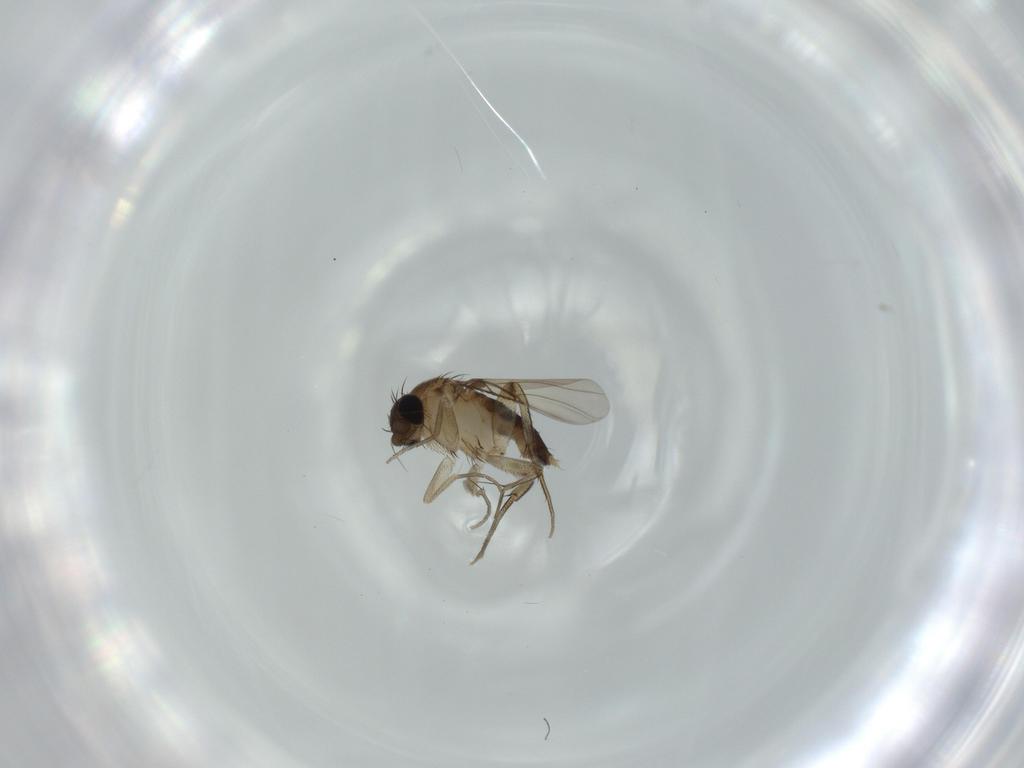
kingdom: Animalia
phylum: Arthropoda
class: Insecta
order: Diptera
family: Phoridae
